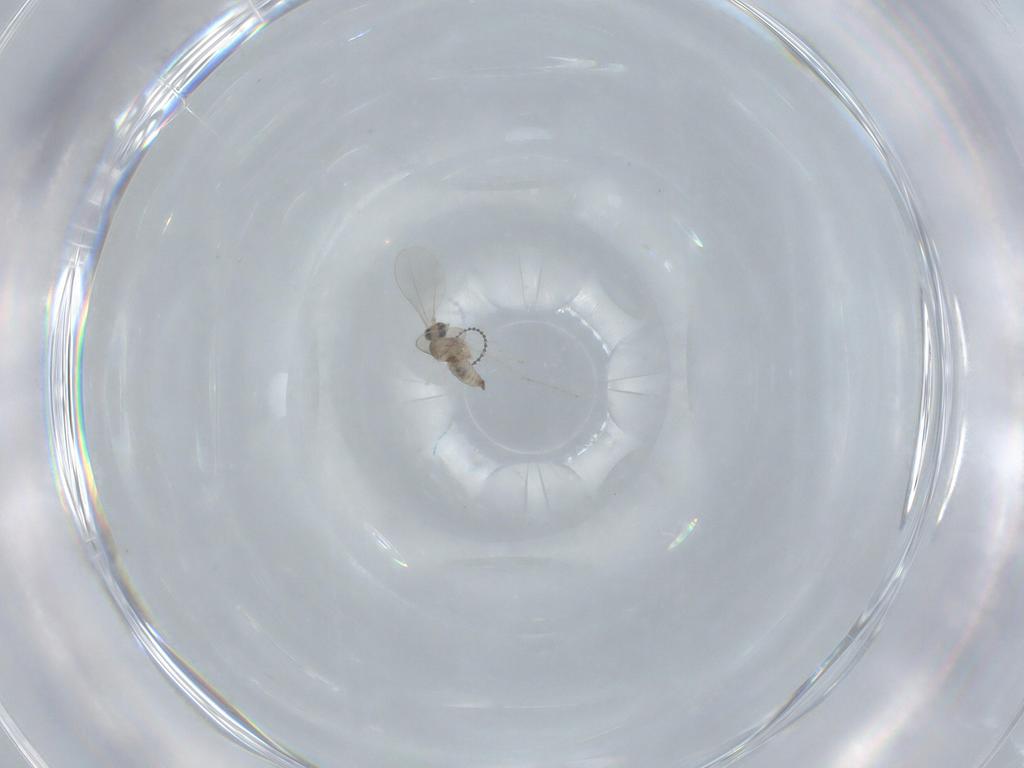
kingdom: Animalia
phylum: Arthropoda
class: Insecta
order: Diptera
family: Cecidomyiidae
